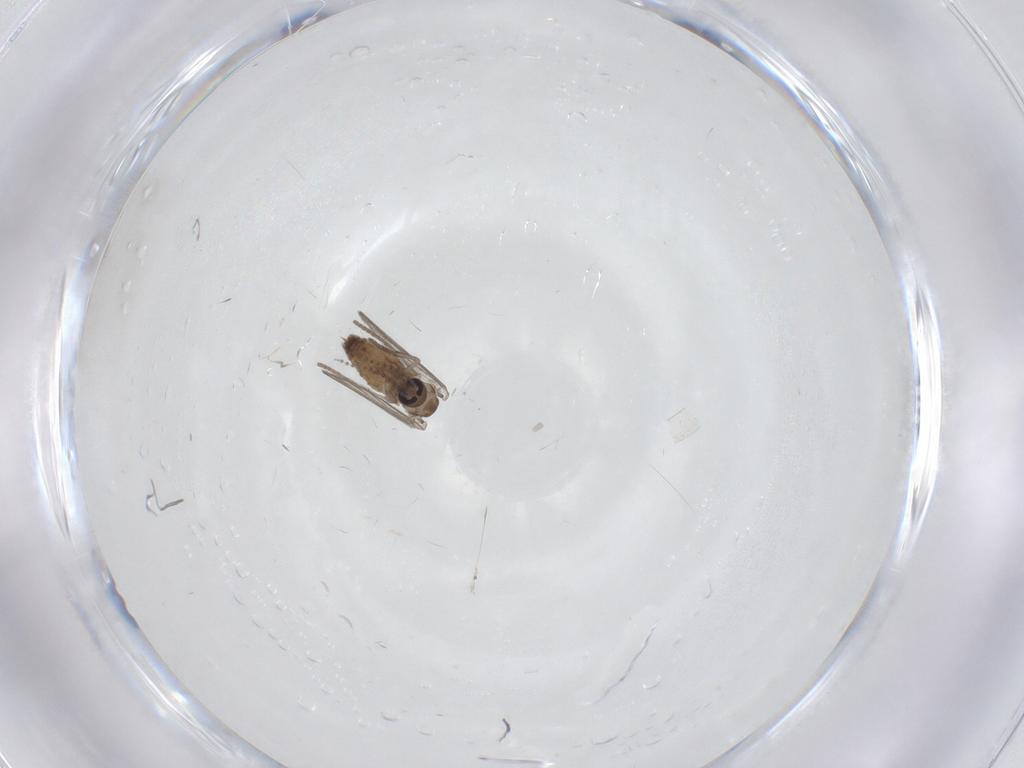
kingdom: Animalia
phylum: Arthropoda
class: Insecta
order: Diptera
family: Psychodidae
